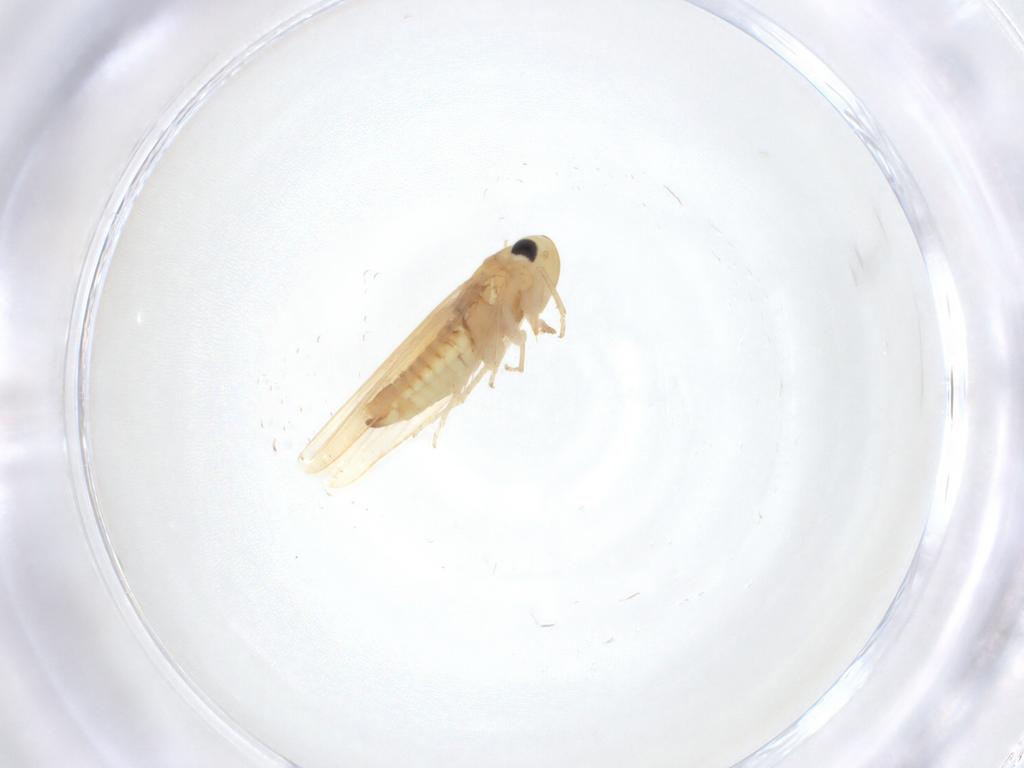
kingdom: Animalia
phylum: Arthropoda
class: Insecta
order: Hemiptera
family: Cicadellidae
